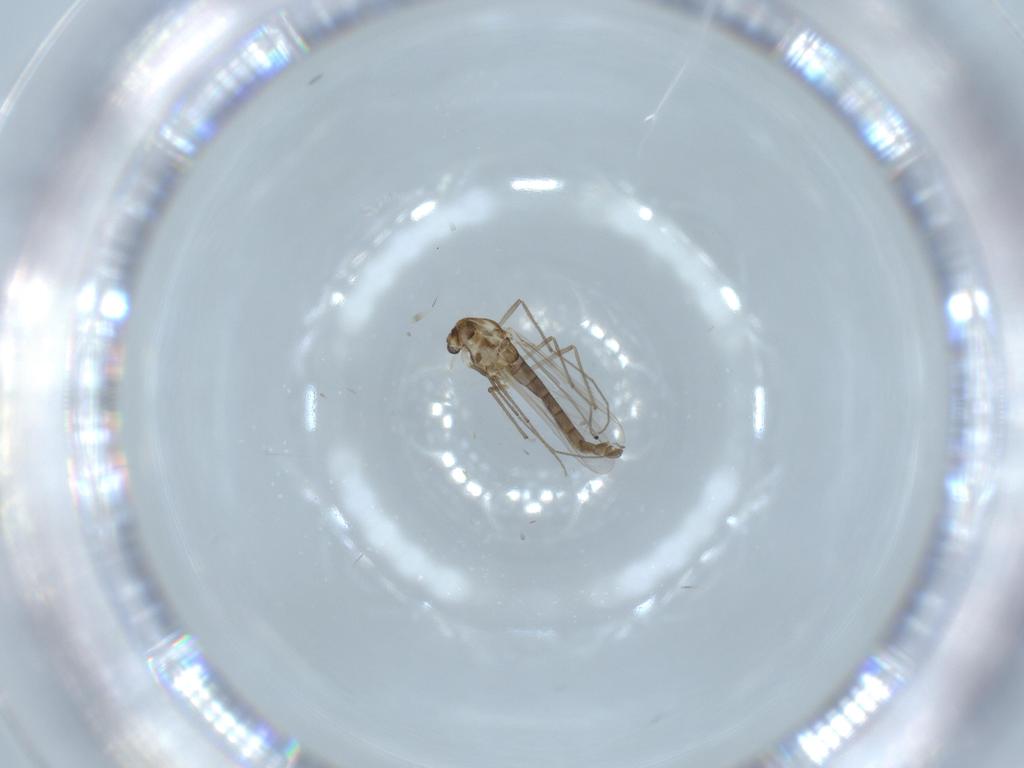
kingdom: Animalia
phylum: Arthropoda
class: Insecta
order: Diptera
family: Chironomidae
